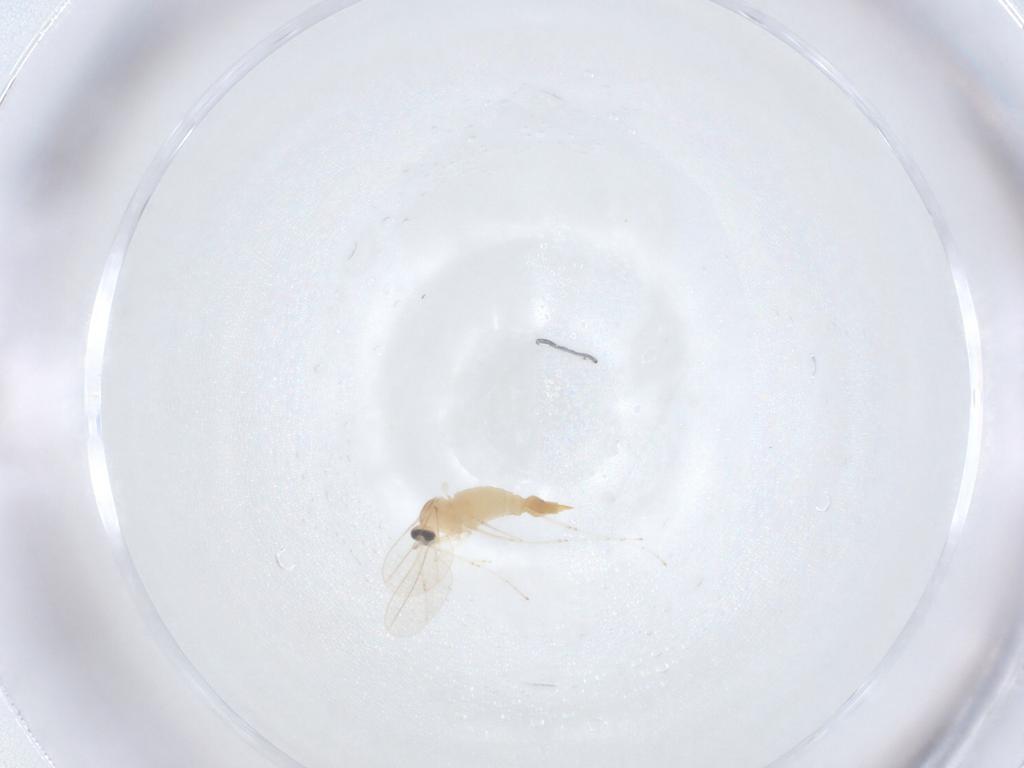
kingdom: Animalia
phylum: Arthropoda
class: Insecta
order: Diptera
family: Cecidomyiidae
